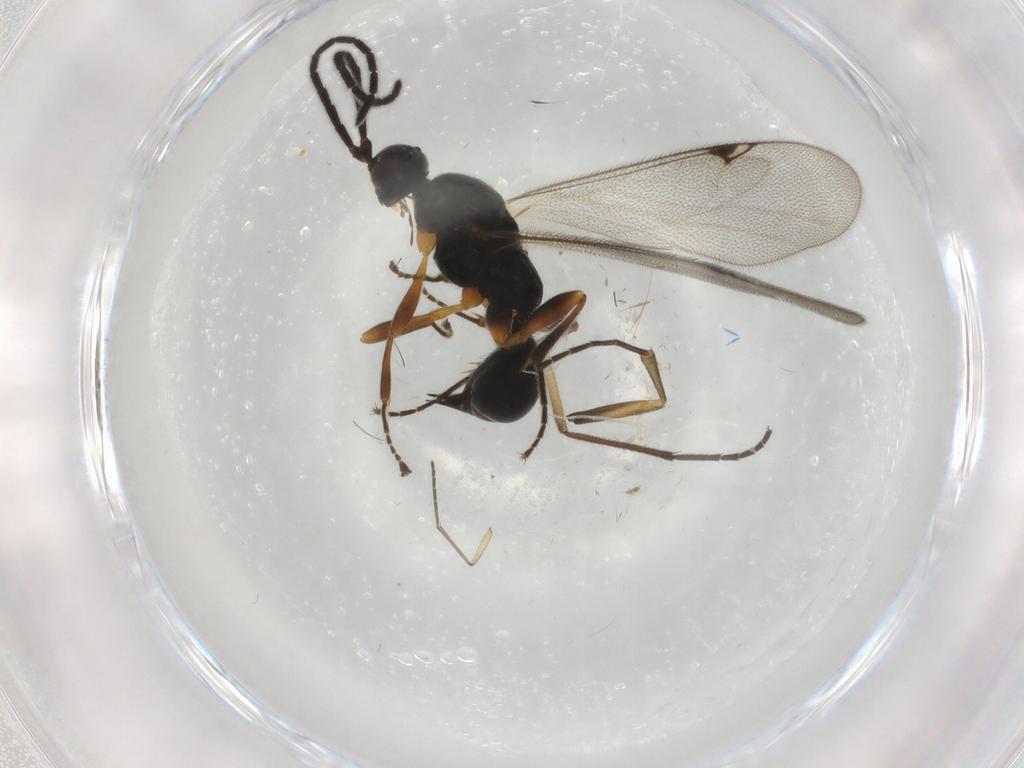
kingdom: Animalia
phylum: Arthropoda
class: Insecta
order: Hymenoptera
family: Proctotrupidae
